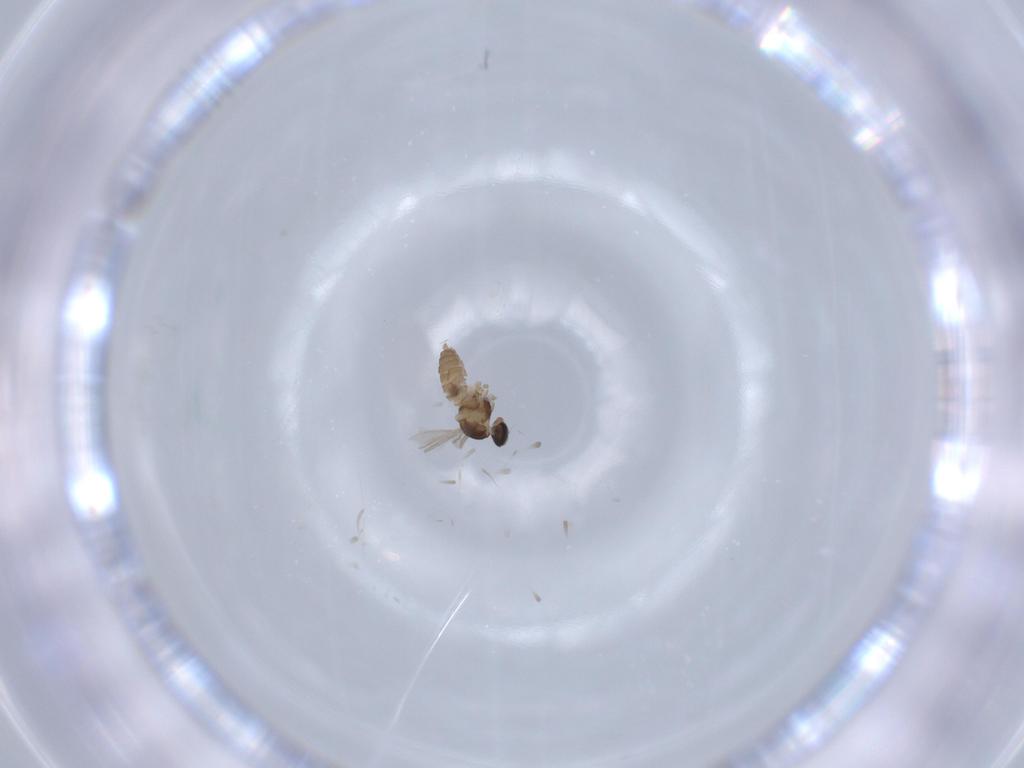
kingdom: Animalia
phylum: Arthropoda
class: Insecta
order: Diptera
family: Cecidomyiidae
